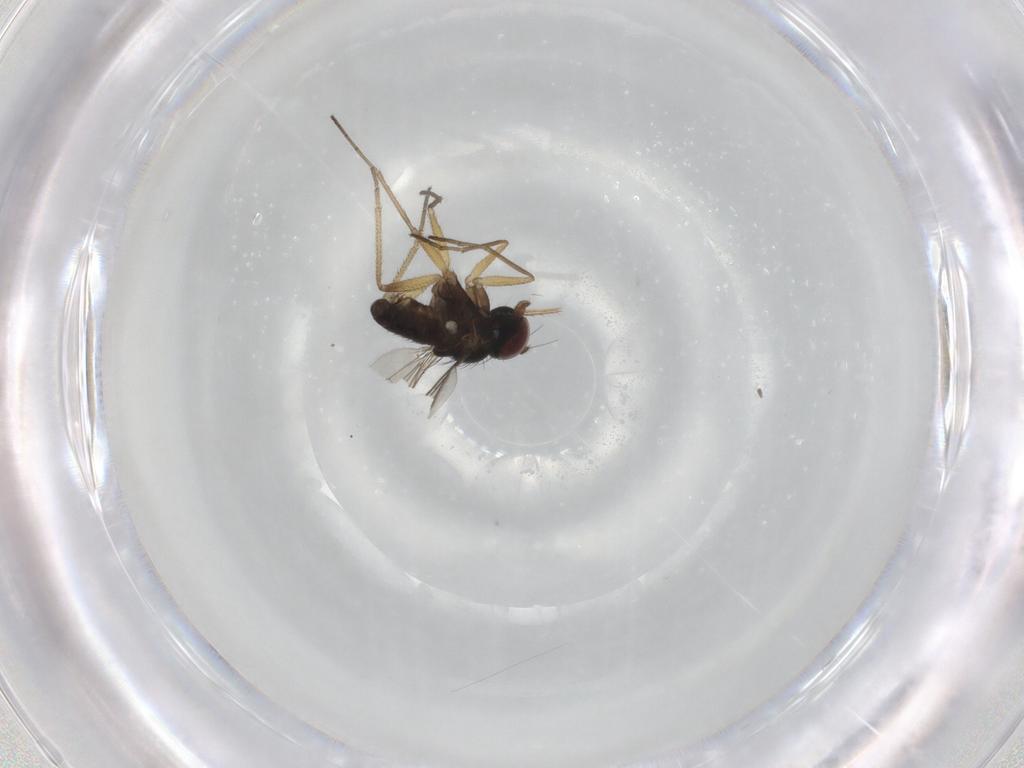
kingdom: Animalia
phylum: Arthropoda
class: Insecta
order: Diptera
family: Dolichopodidae
